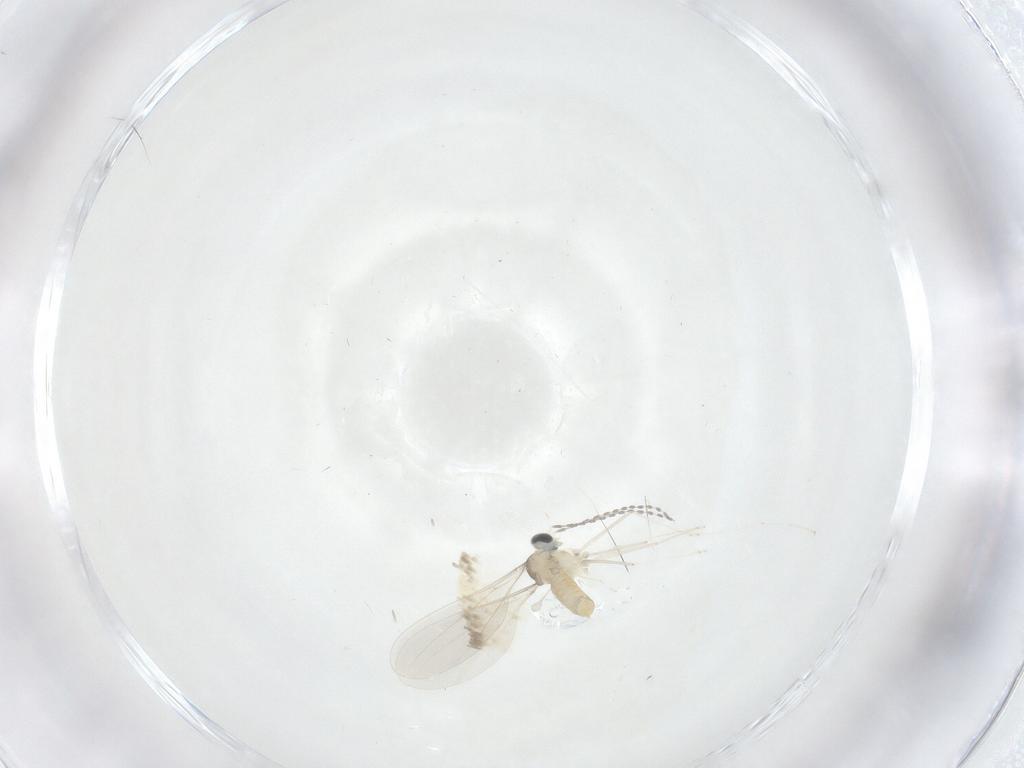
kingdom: Animalia
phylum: Arthropoda
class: Insecta
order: Diptera
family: Cecidomyiidae
